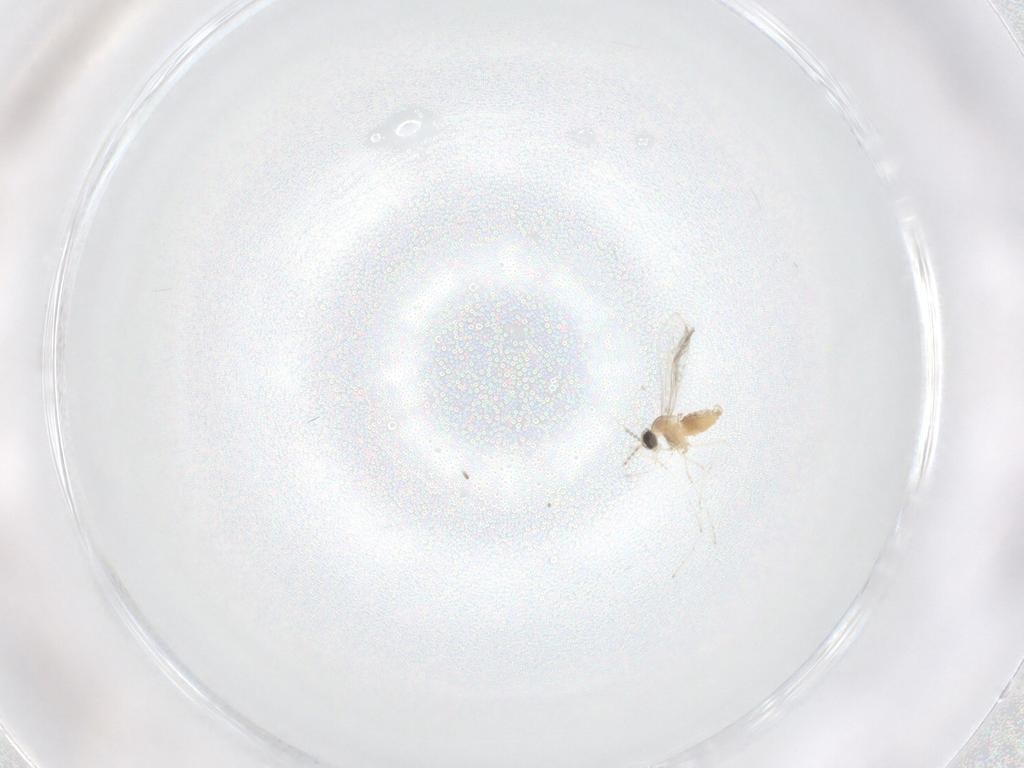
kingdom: Animalia
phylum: Arthropoda
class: Insecta
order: Diptera
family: Cecidomyiidae
